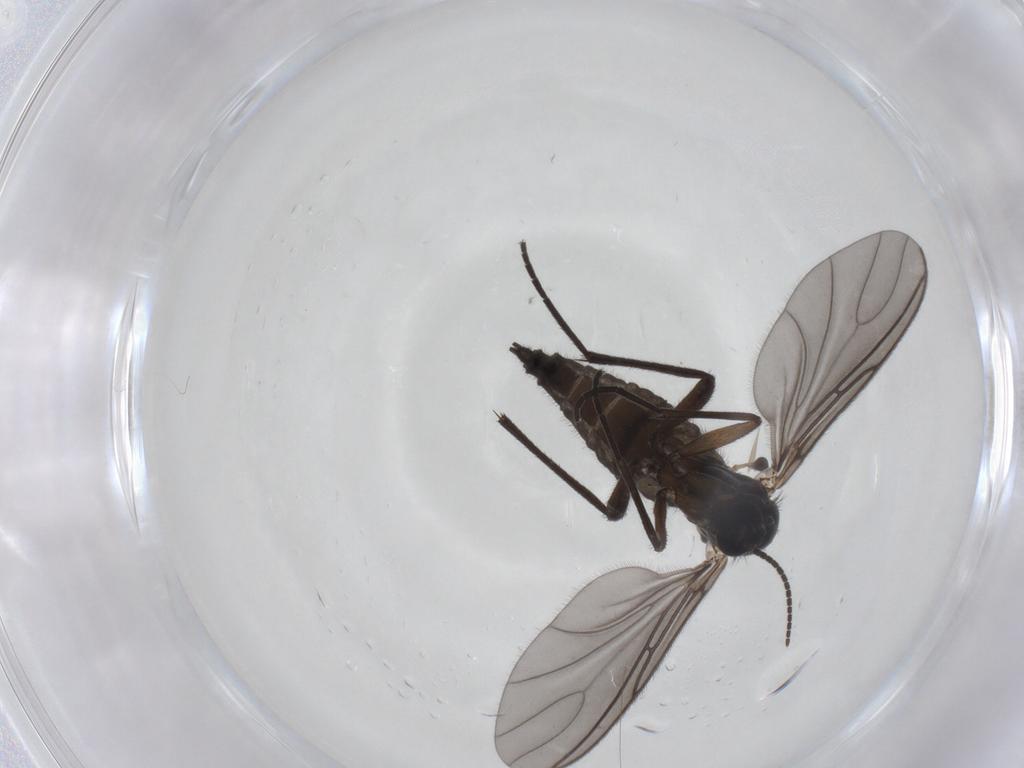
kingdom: Animalia
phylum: Arthropoda
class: Insecta
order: Diptera
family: Sciaridae
